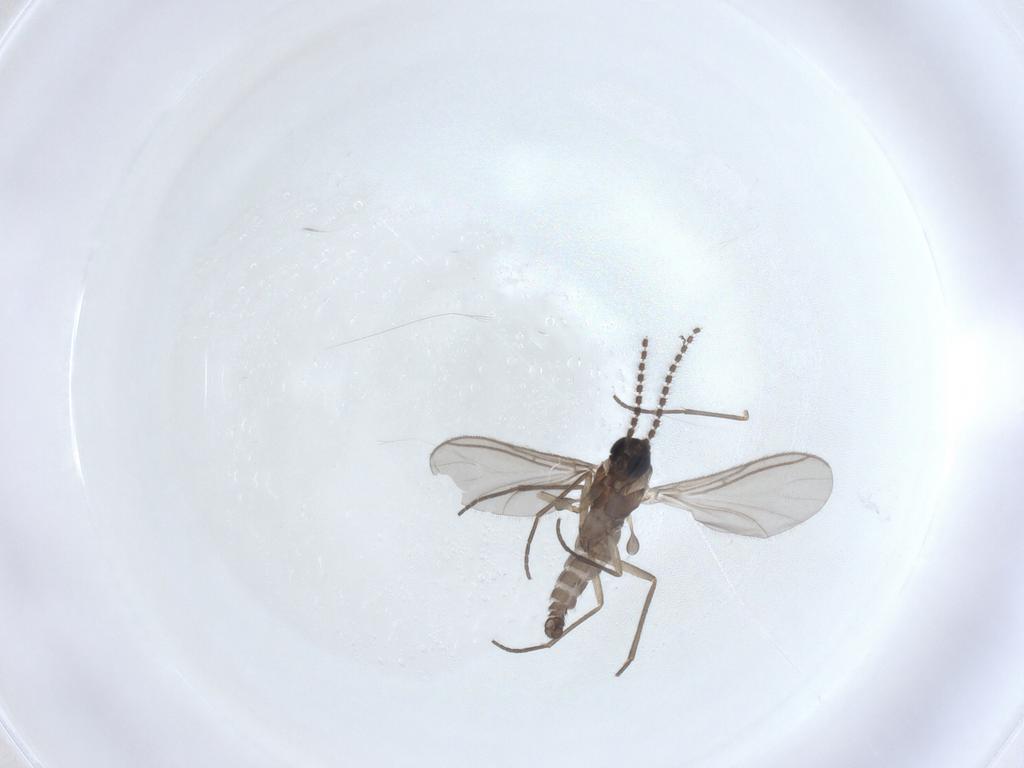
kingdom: Animalia
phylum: Arthropoda
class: Insecta
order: Diptera
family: Sciaridae
